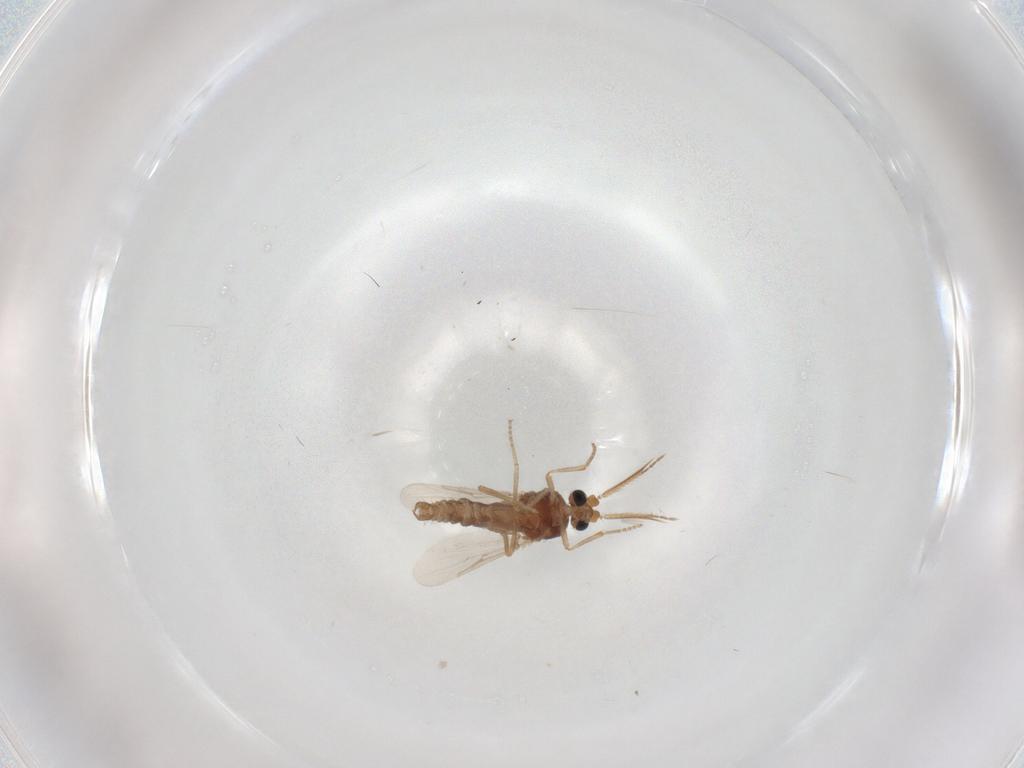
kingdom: Animalia
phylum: Arthropoda
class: Insecta
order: Diptera
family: Ceratopogonidae
